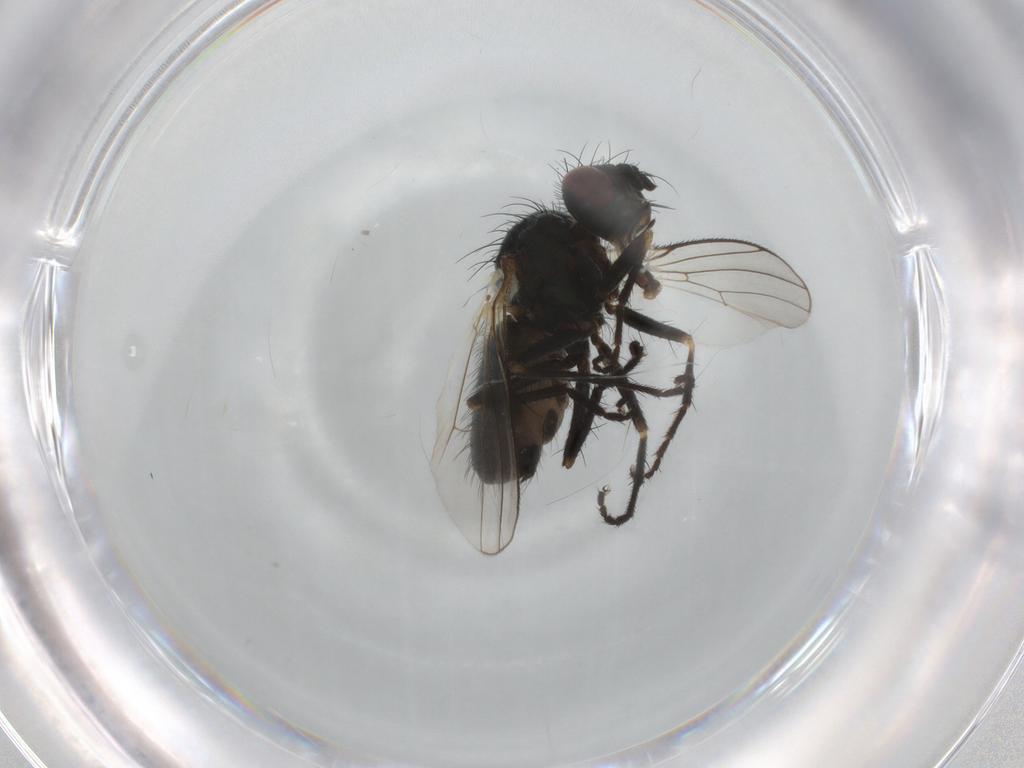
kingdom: Animalia
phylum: Arthropoda
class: Insecta
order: Diptera
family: Muscidae
